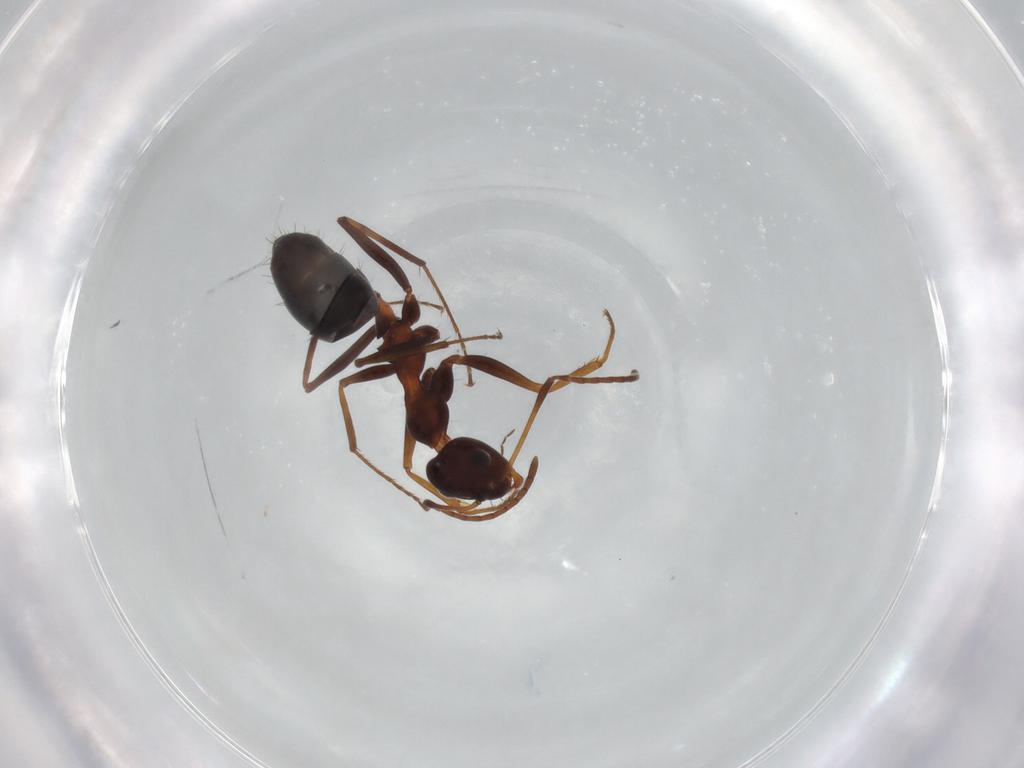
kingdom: Animalia
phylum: Arthropoda
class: Insecta
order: Hymenoptera
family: Formicidae
